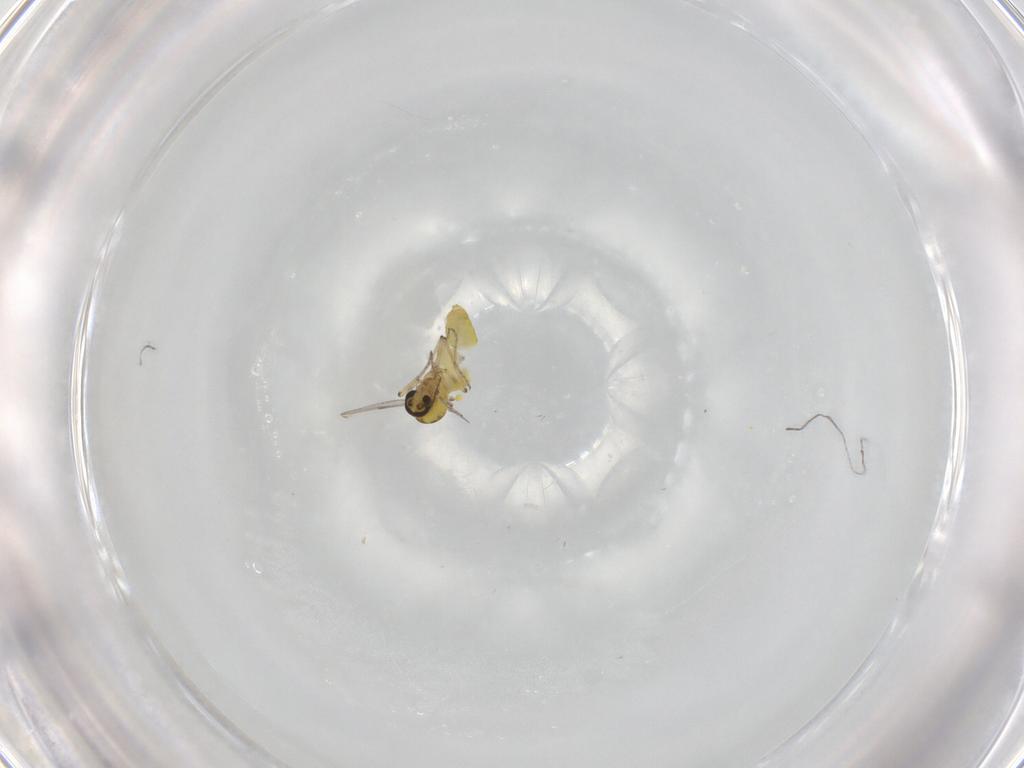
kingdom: Animalia
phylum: Arthropoda
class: Insecta
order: Diptera
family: Ceratopogonidae
